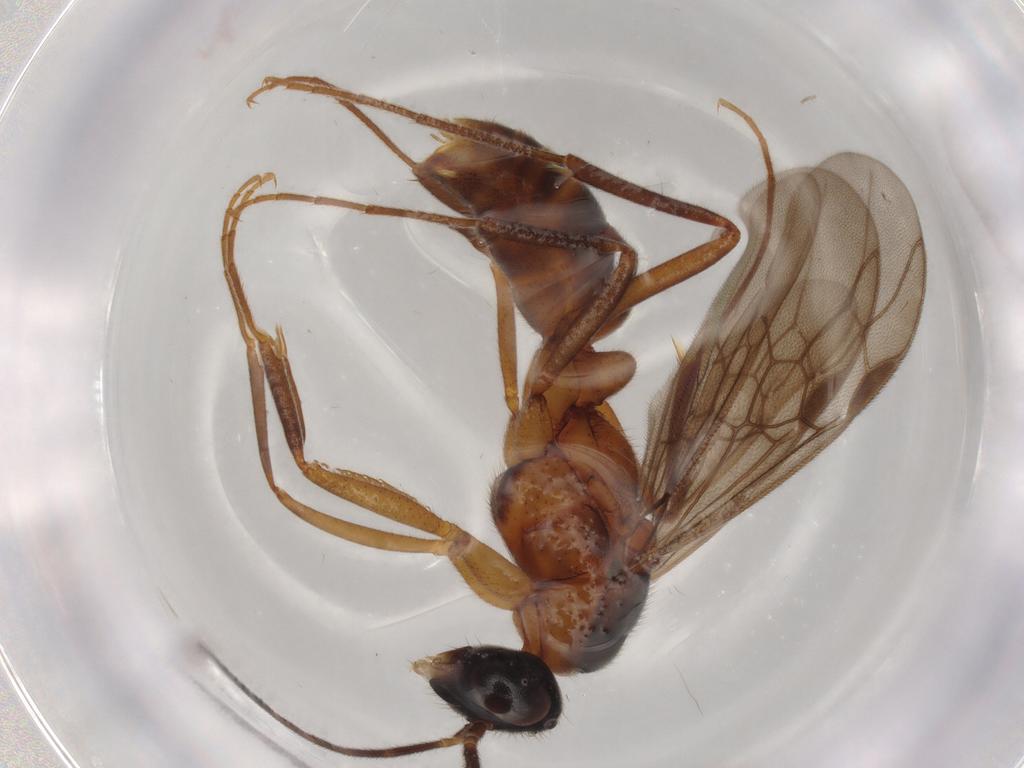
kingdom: Animalia
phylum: Arthropoda
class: Insecta
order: Hymenoptera
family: Formicidae
